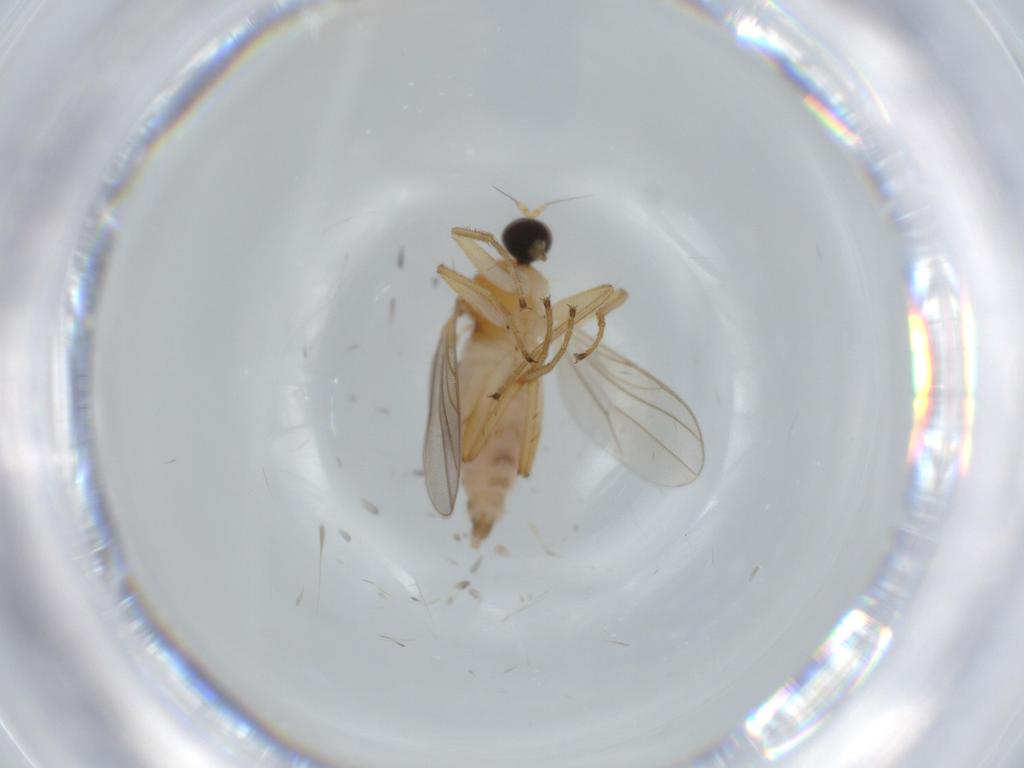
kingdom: Animalia
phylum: Arthropoda
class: Insecta
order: Diptera
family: Hybotidae
